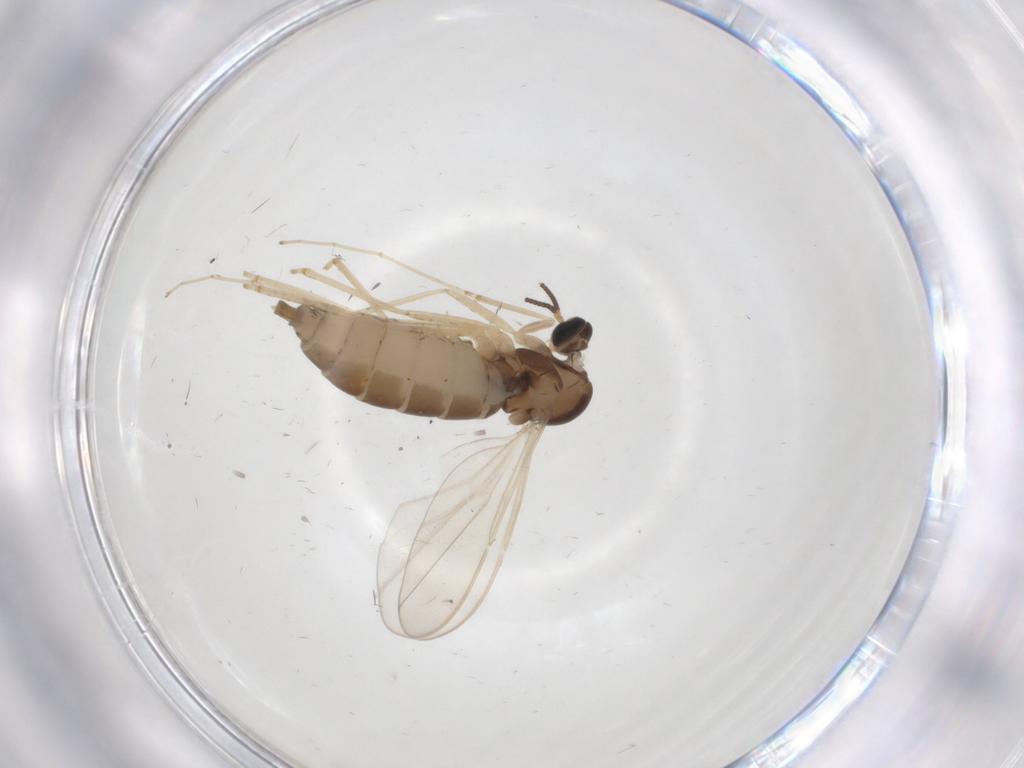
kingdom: Animalia
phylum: Arthropoda
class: Insecta
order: Diptera
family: Cecidomyiidae
